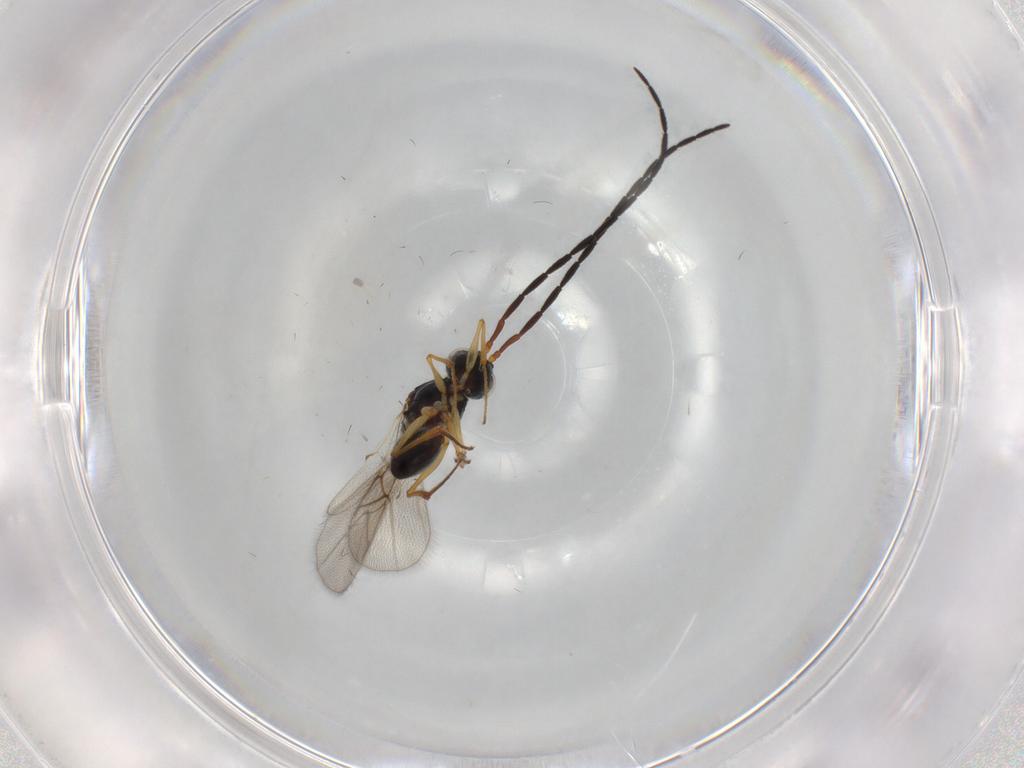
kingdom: Animalia
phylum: Arthropoda
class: Insecta
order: Hymenoptera
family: Figitidae
